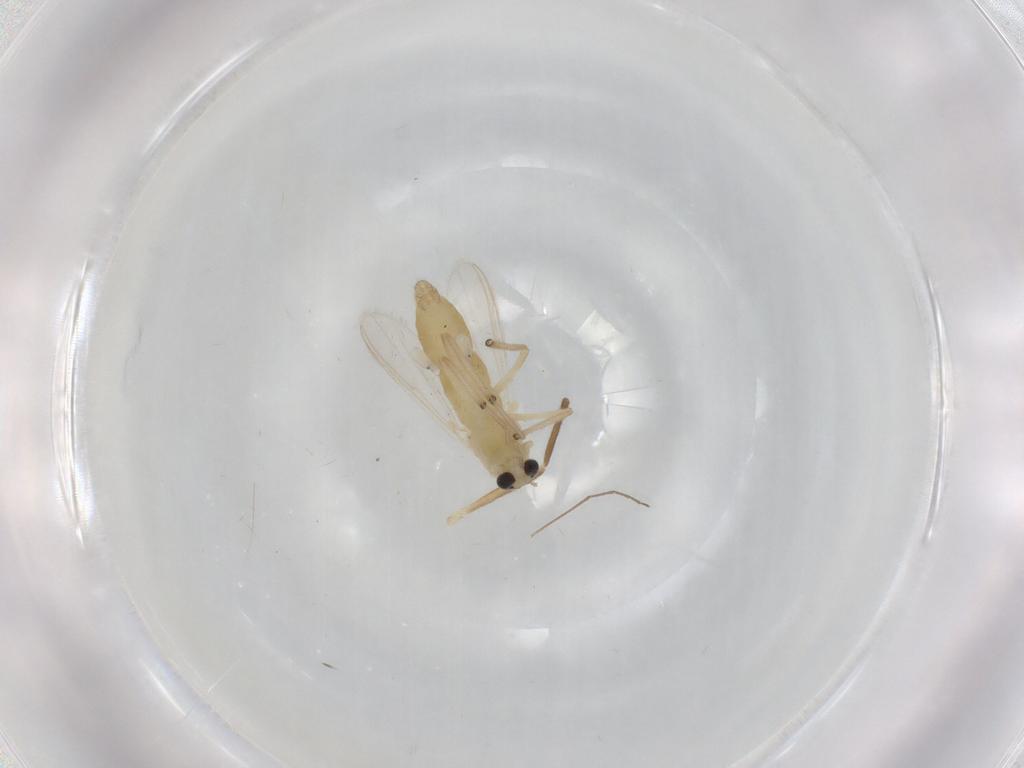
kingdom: Animalia
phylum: Arthropoda
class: Insecta
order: Diptera
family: Chironomidae
